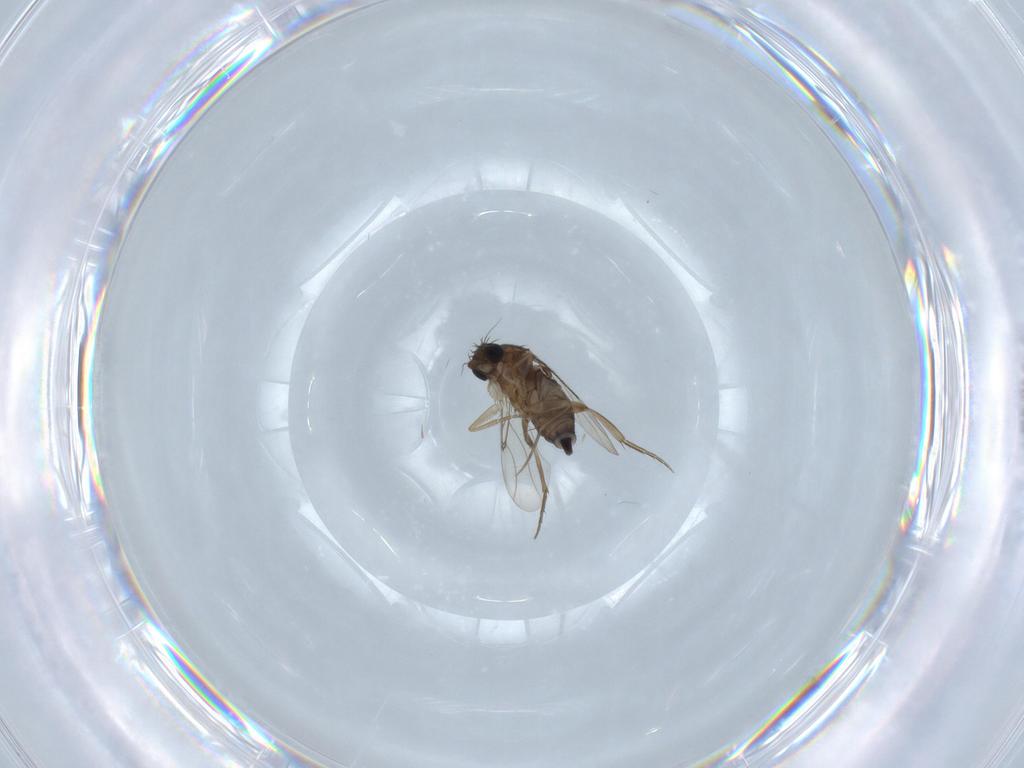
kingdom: Animalia
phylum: Arthropoda
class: Insecta
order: Diptera
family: Phoridae
